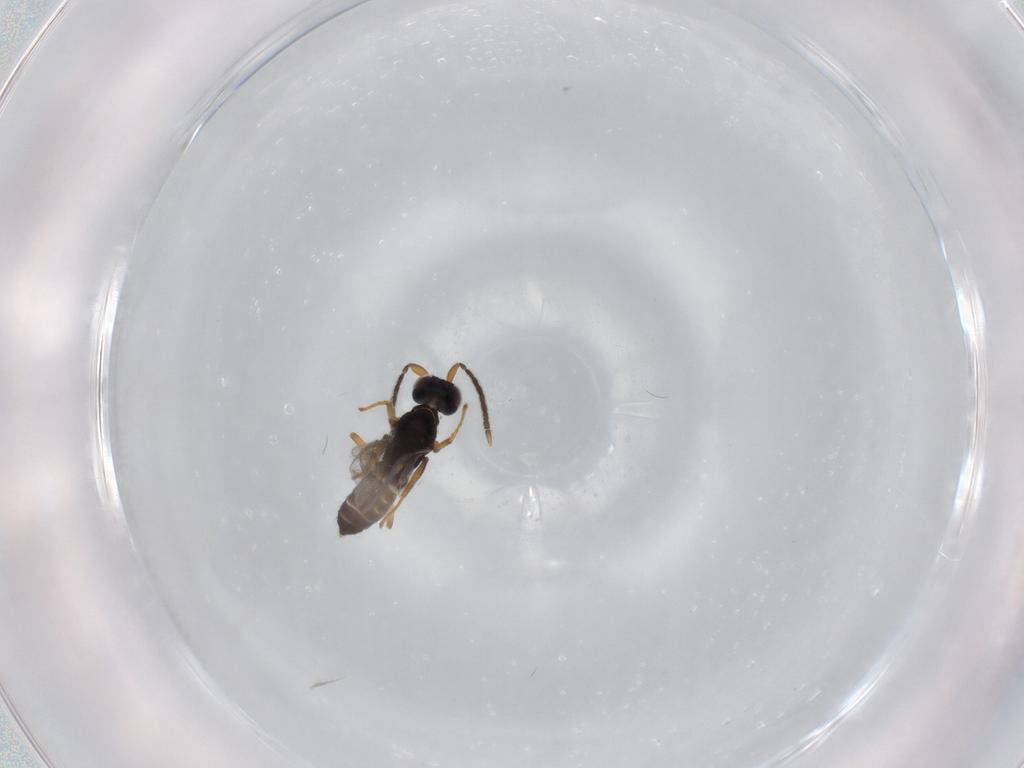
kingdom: Animalia
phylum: Arthropoda
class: Insecta
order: Hymenoptera
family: Eupelmidae
